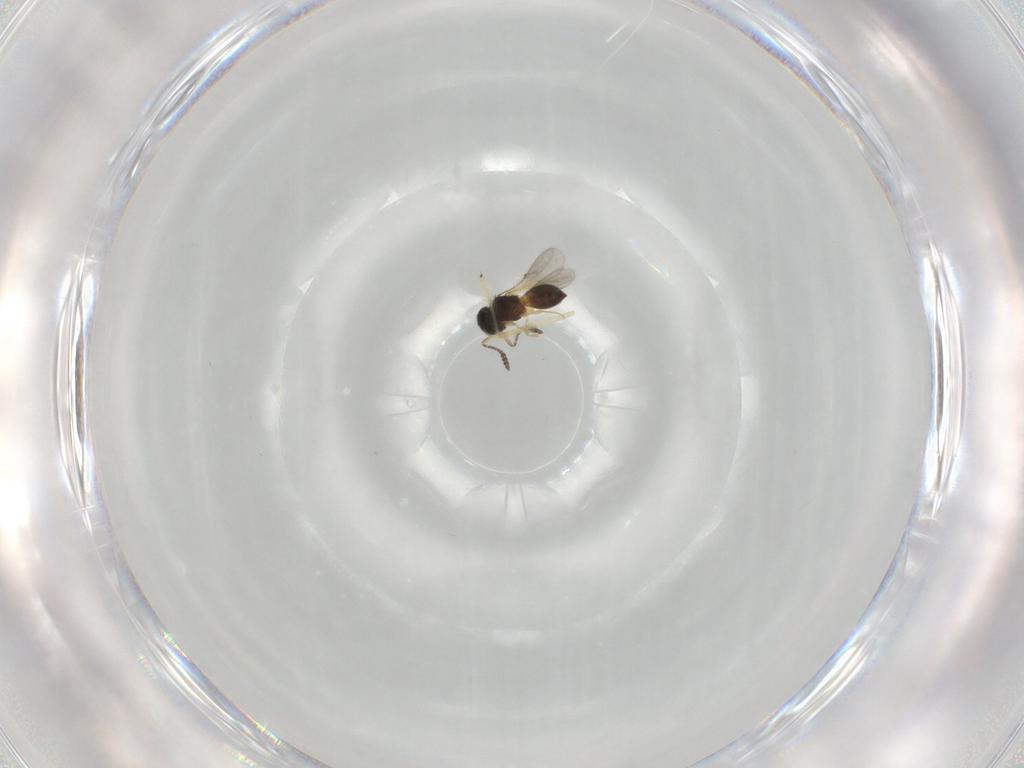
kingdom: Animalia
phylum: Arthropoda
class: Insecta
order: Hymenoptera
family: Scelionidae
